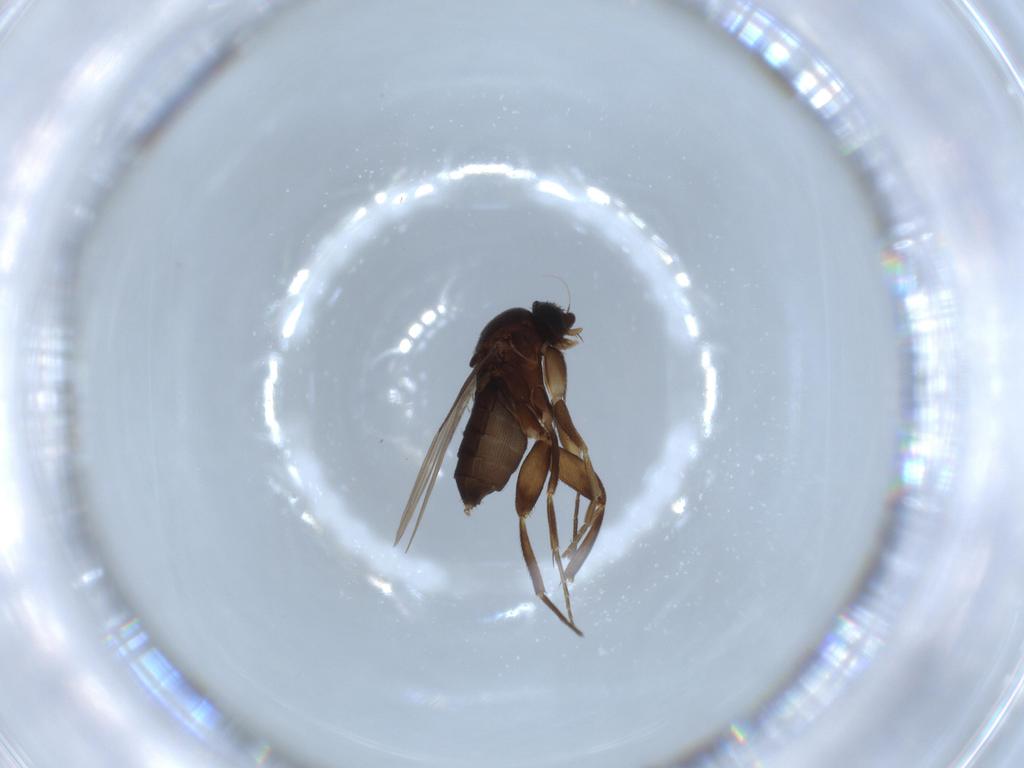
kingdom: Animalia
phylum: Arthropoda
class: Insecta
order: Diptera
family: Phoridae
